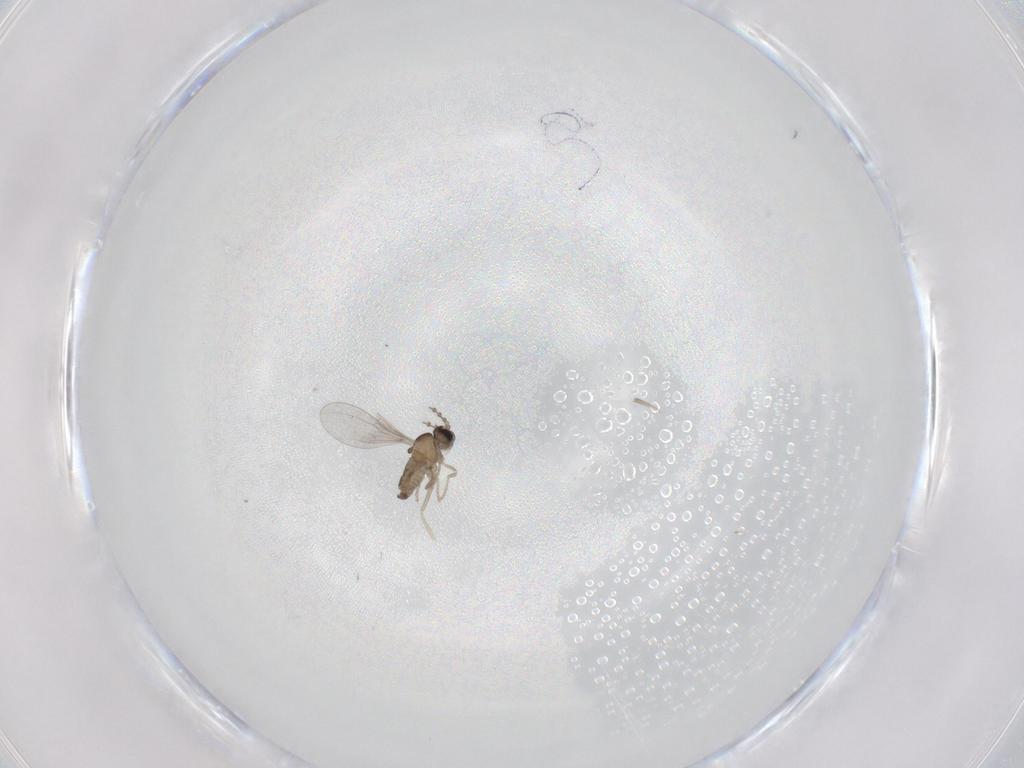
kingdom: Animalia
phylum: Arthropoda
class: Insecta
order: Diptera
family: Cecidomyiidae
